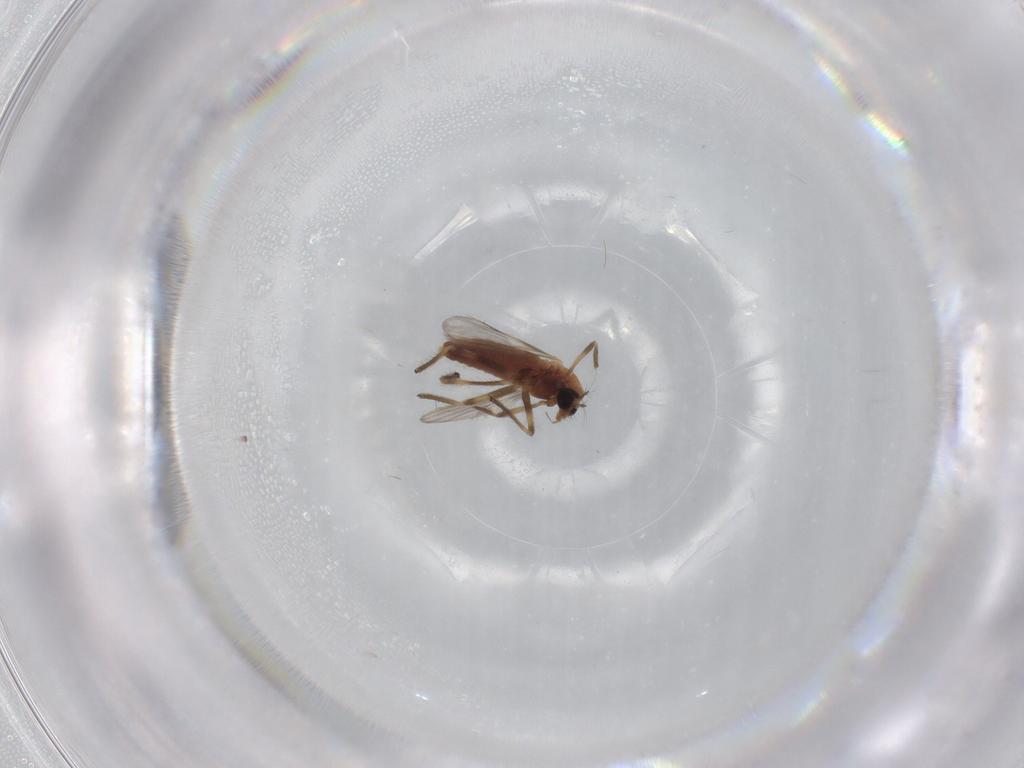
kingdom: Animalia
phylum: Arthropoda
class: Insecta
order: Diptera
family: Chironomidae
